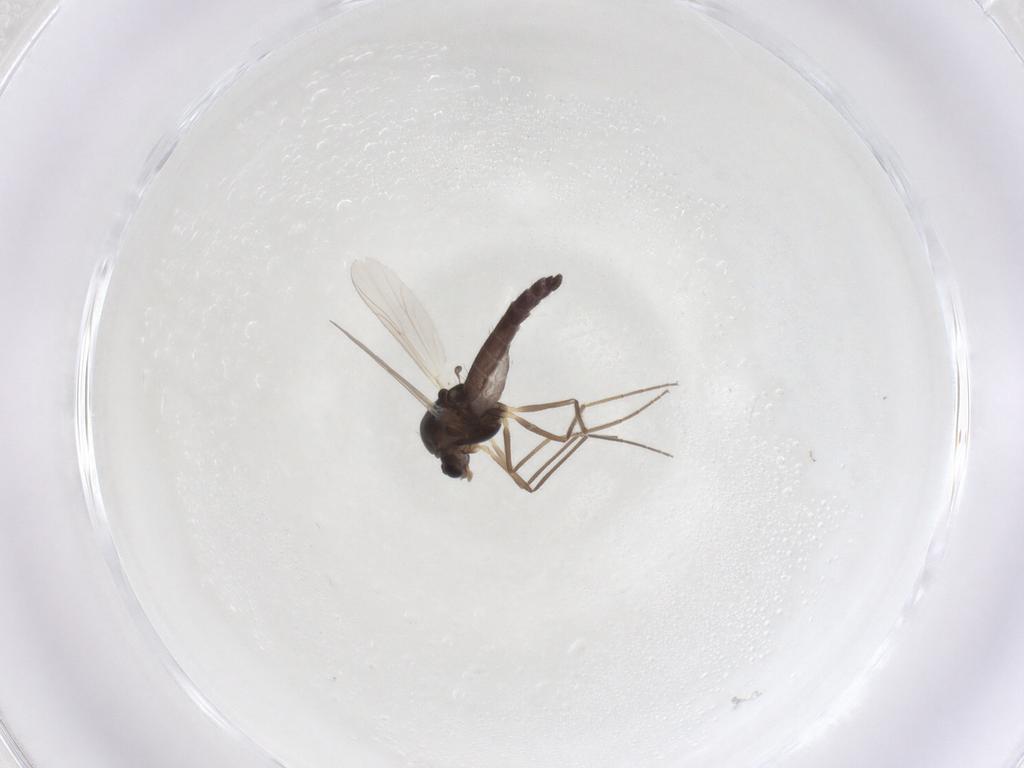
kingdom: Animalia
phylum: Arthropoda
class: Insecta
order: Diptera
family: Chironomidae
